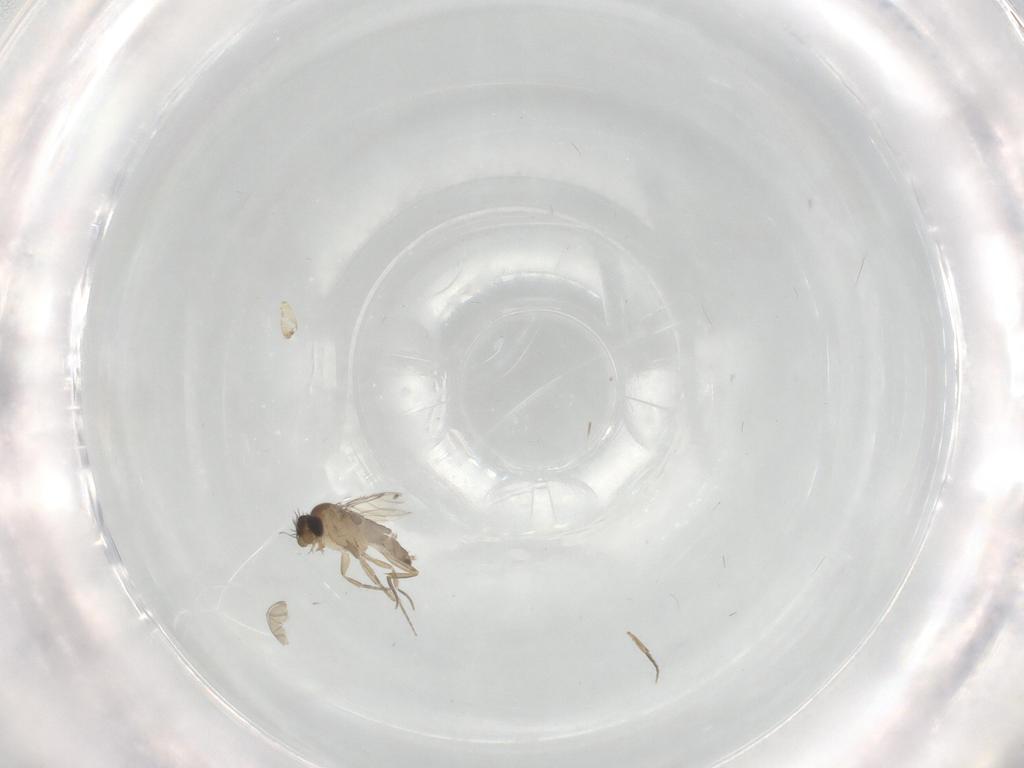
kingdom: Animalia
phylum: Arthropoda
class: Insecta
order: Diptera
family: Phoridae
